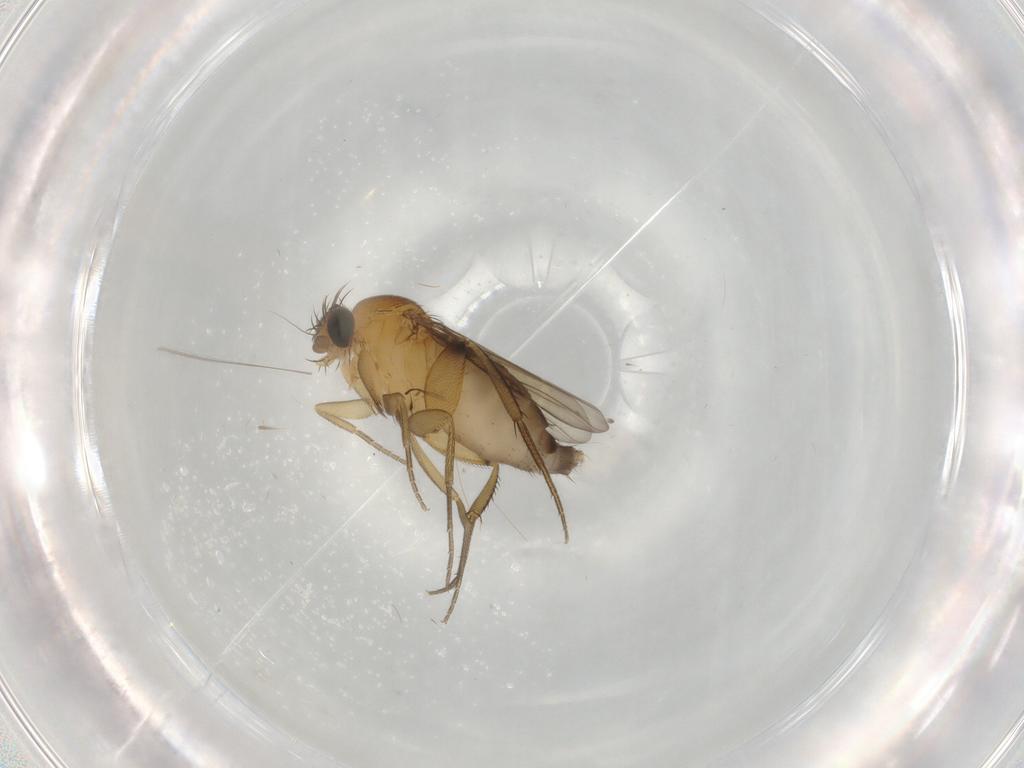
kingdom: Animalia
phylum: Arthropoda
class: Insecta
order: Diptera
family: Phoridae
